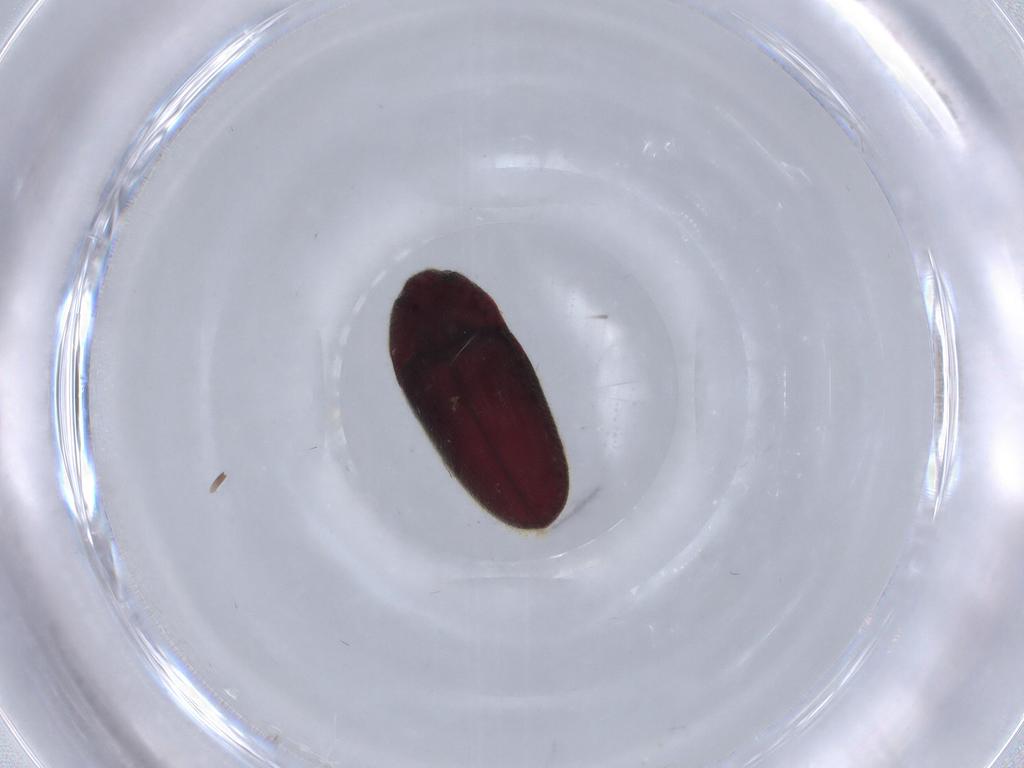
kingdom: Animalia
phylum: Arthropoda
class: Insecta
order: Coleoptera
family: Throscidae
